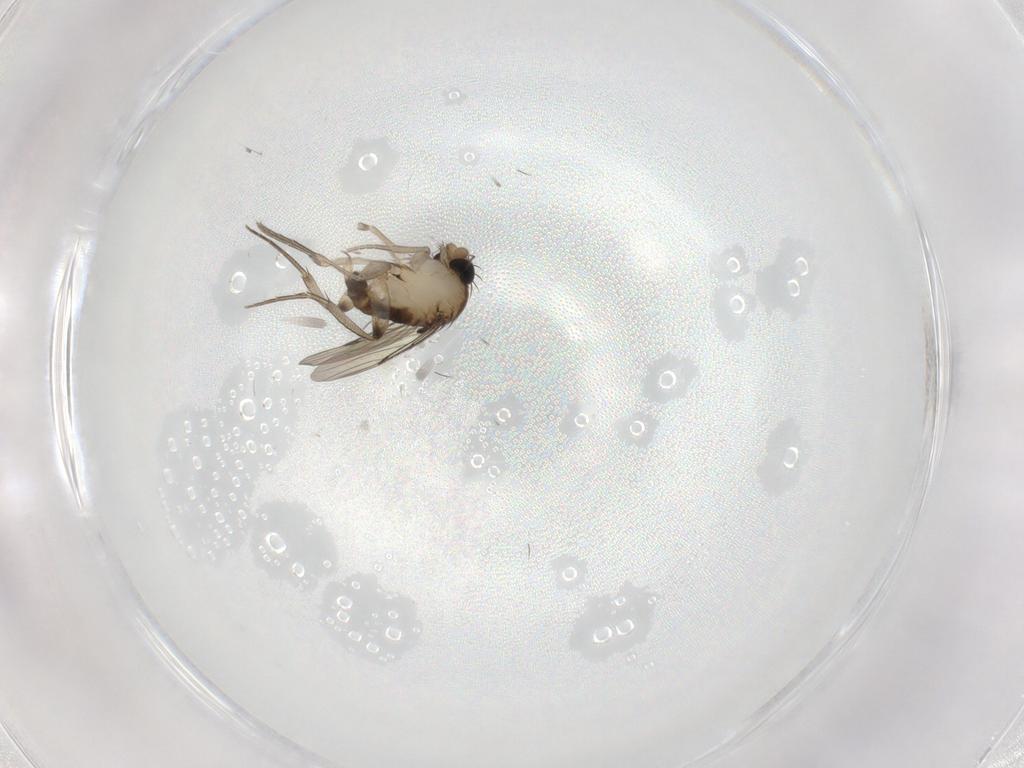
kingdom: Animalia
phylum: Arthropoda
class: Insecta
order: Diptera
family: Phoridae
